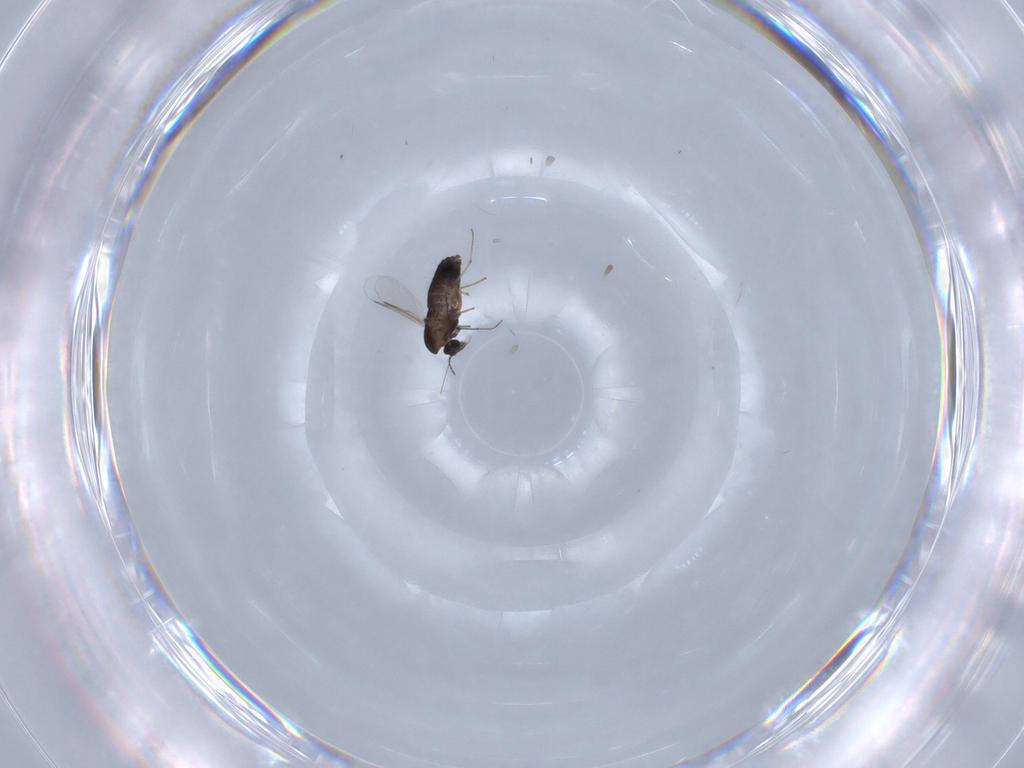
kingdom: Animalia
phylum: Arthropoda
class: Insecta
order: Diptera
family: Chironomidae
